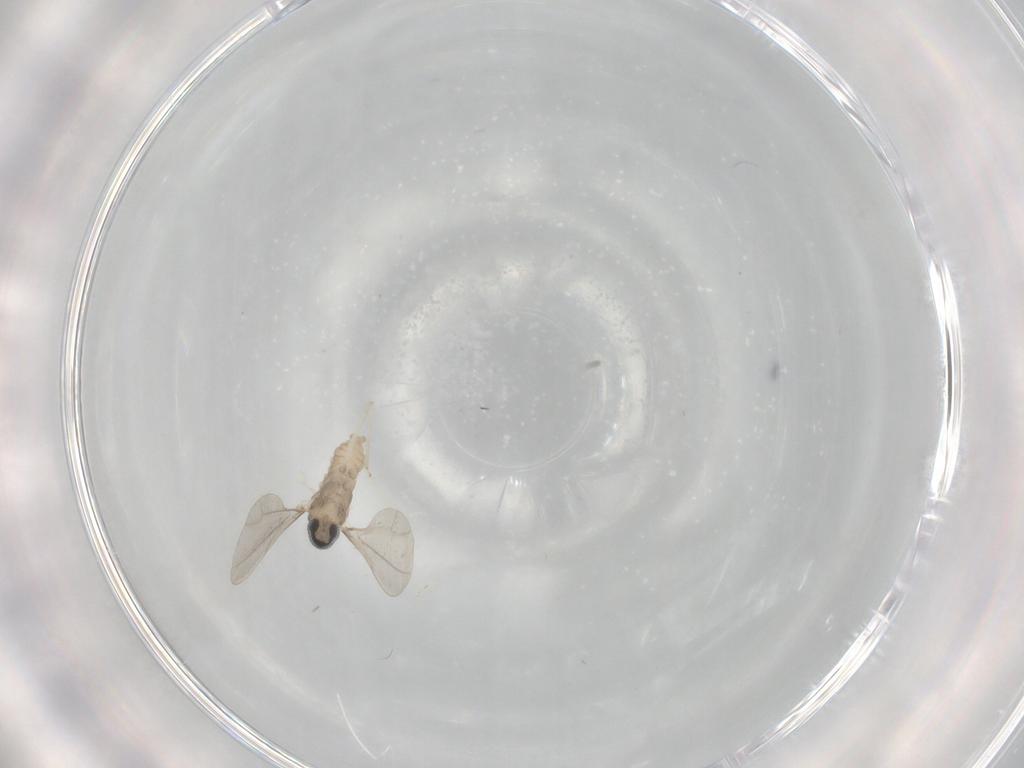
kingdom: Animalia
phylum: Arthropoda
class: Insecta
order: Diptera
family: Cecidomyiidae
